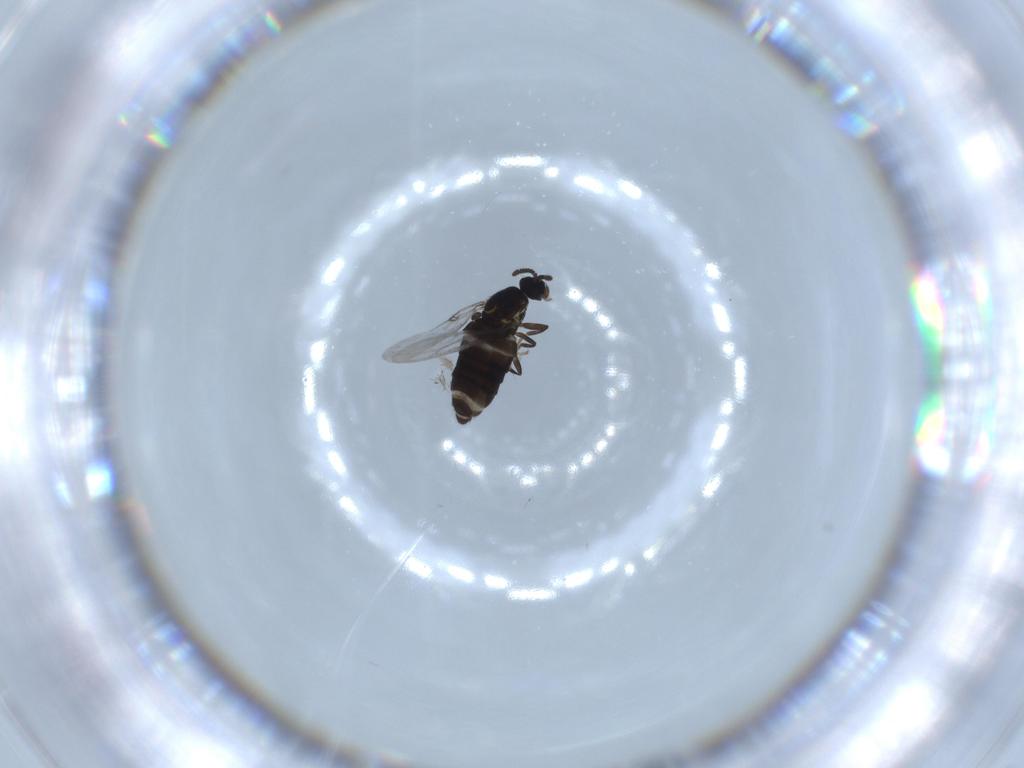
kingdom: Animalia
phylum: Arthropoda
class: Insecta
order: Diptera
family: Scatopsidae
